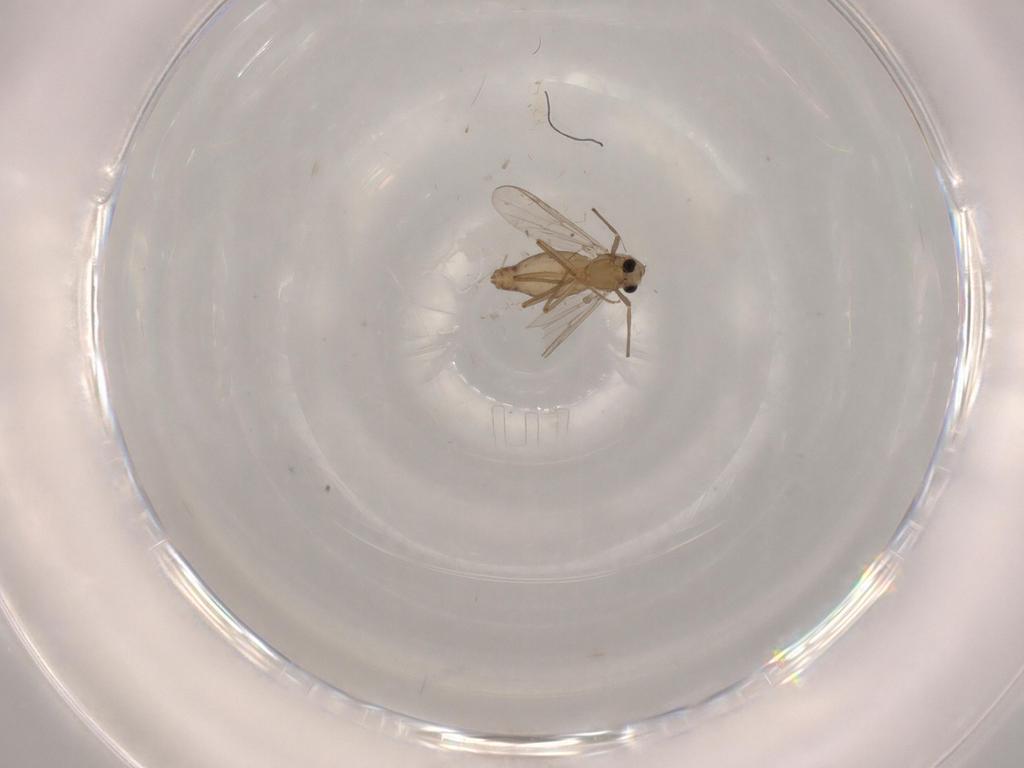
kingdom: Animalia
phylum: Arthropoda
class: Insecta
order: Diptera
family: Chironomidae
